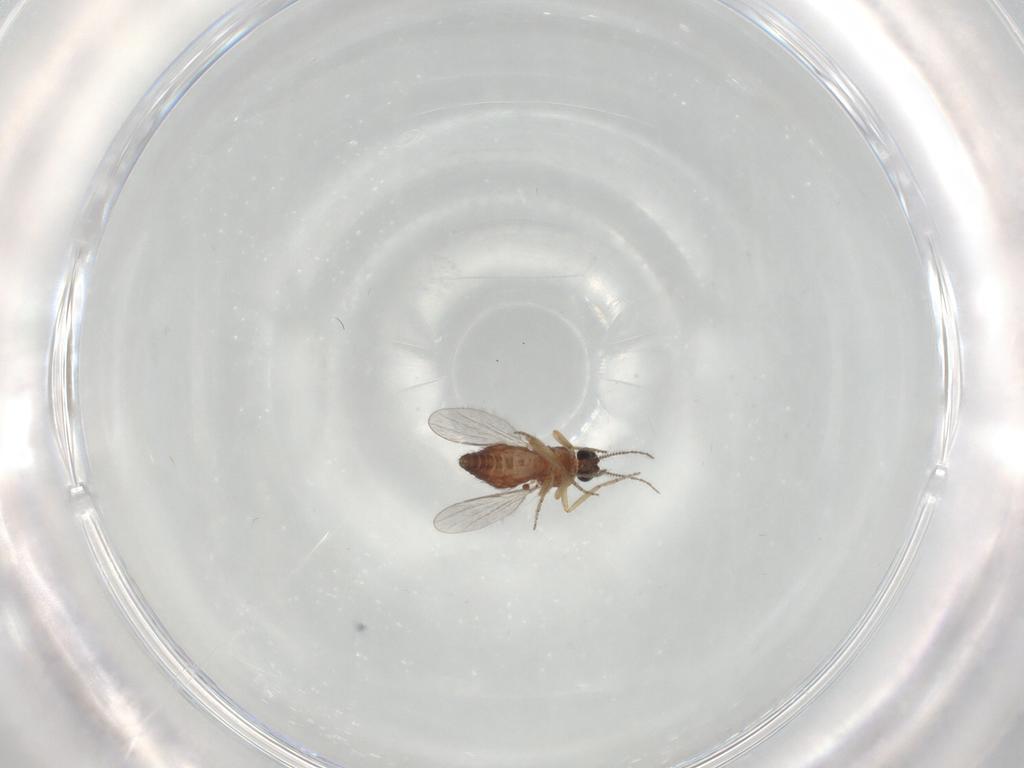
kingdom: Animalia
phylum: Arthropoda
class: Insecta
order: Diptera
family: Ceratopogonidae
